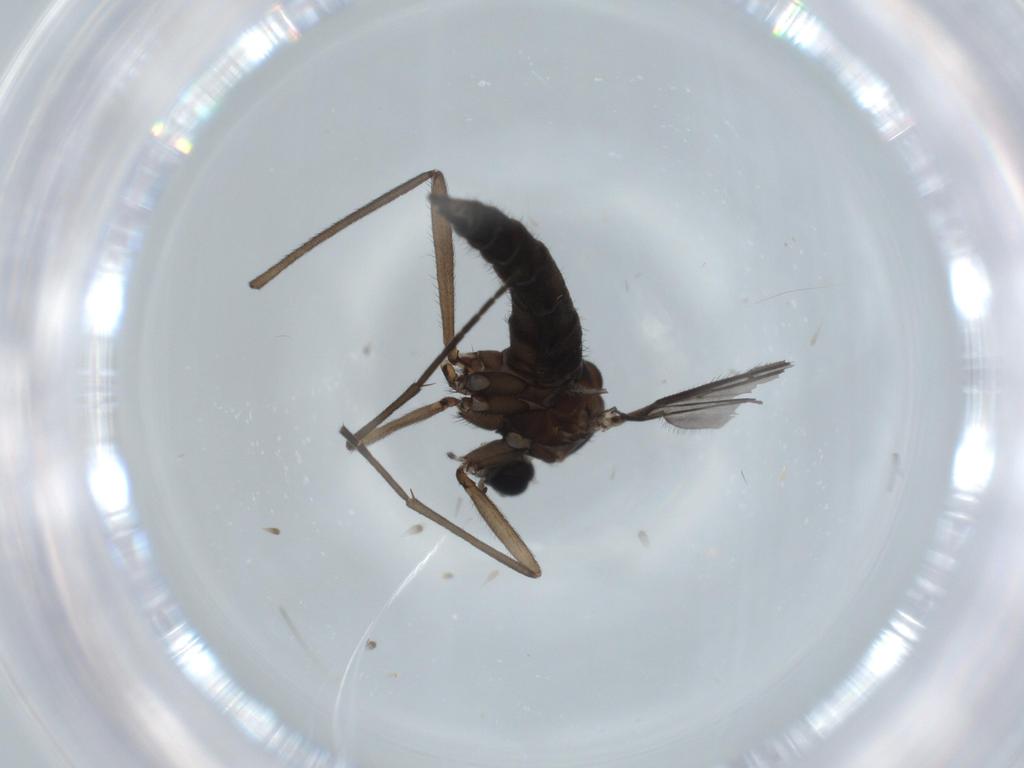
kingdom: Animalia
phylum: Arthropoda
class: Insecta
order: Diptera
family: Sciaridae
